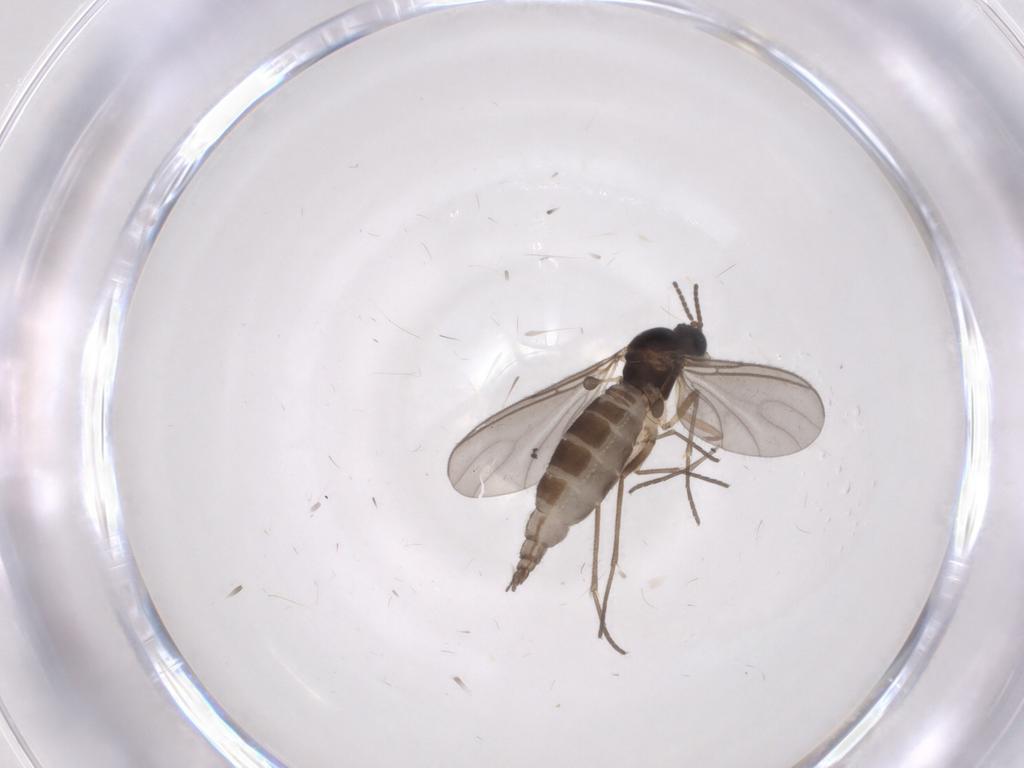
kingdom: Animalia
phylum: Arthropoda
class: Insecta
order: Diptera
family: Sciaridae
